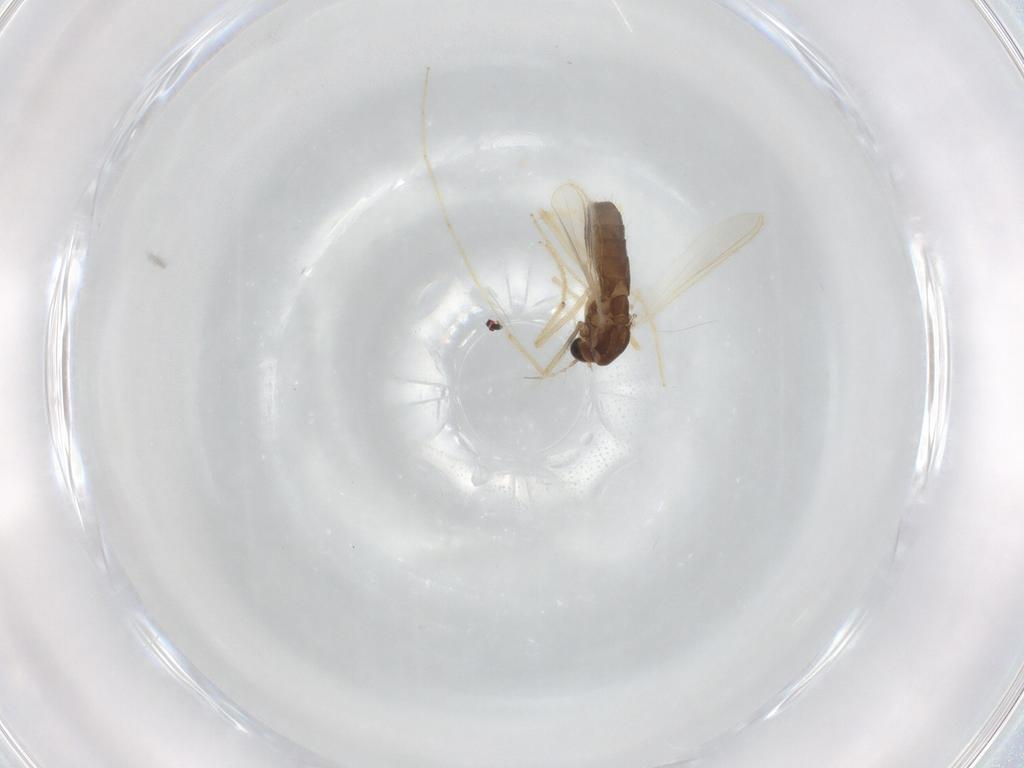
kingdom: Animalia
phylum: Arthropoda
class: Insecta
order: Diptera
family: Chironomidae
